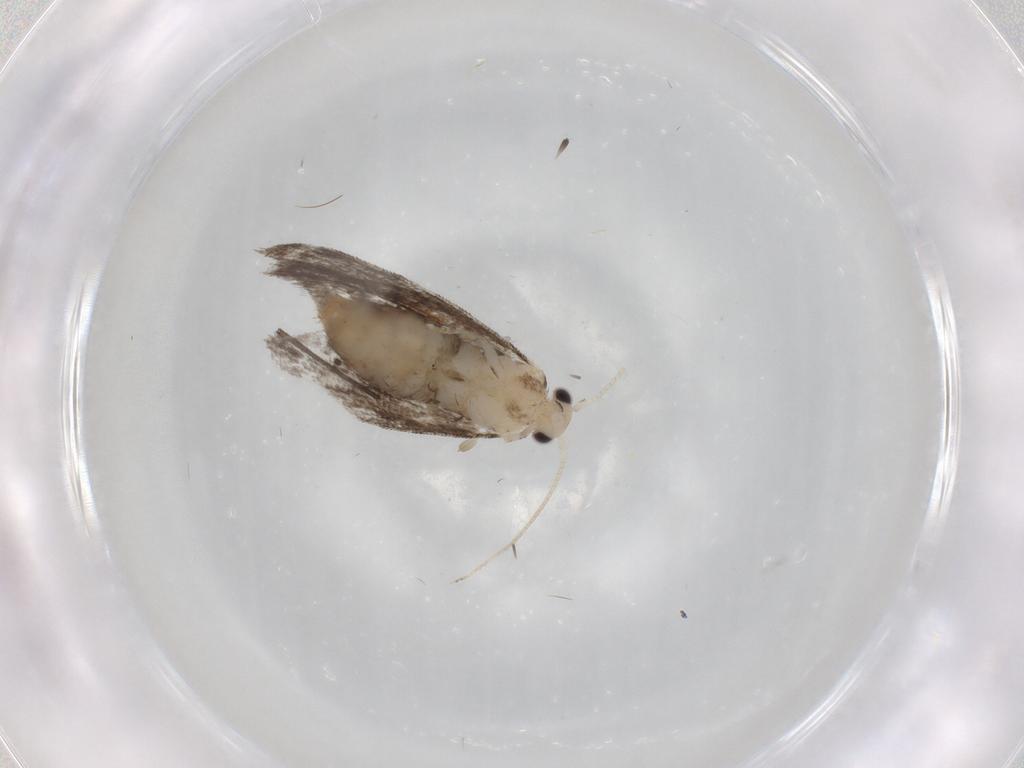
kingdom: Animalia
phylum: Arthropoda
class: Insecta
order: Lepidoptera
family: Tineidae
